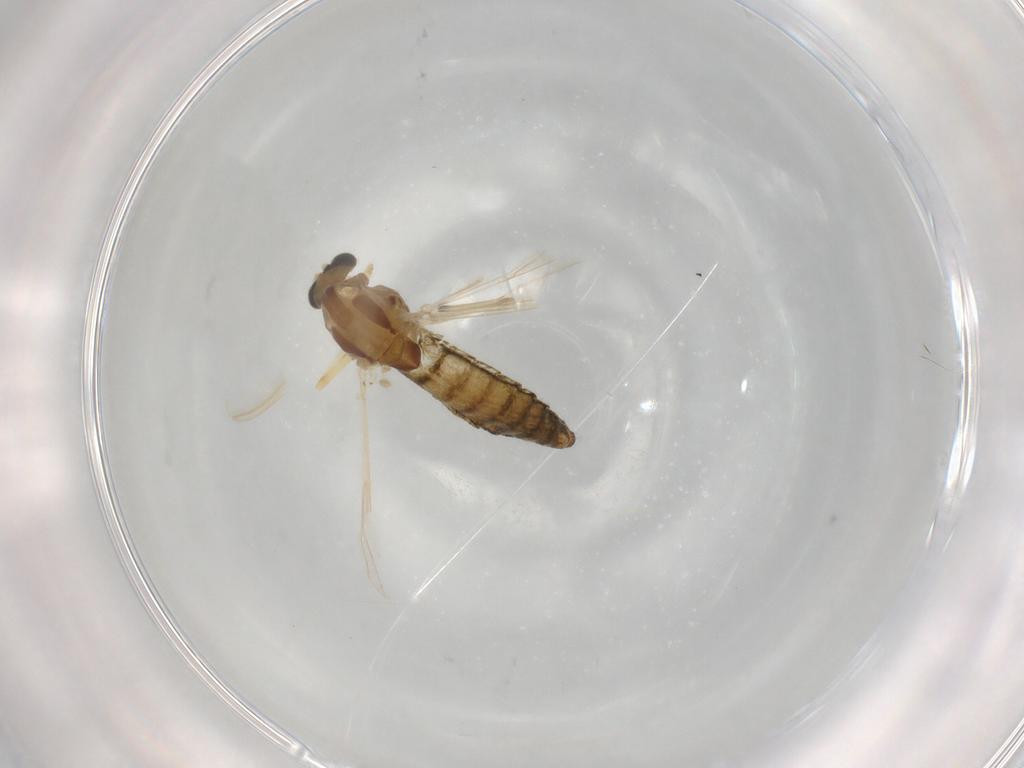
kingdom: Animalia
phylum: Arthropoda
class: Insecta
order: Diptera
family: Chironomidae
